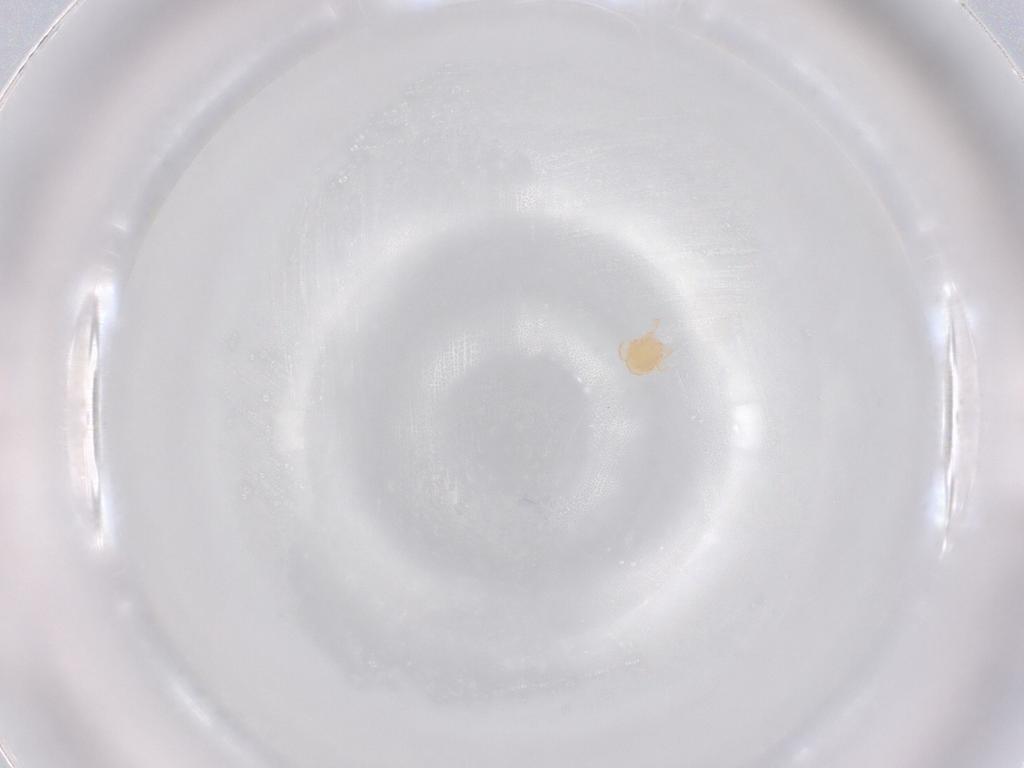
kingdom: Animalia
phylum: Arthropoda
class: Arachnida
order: Trombidiformes
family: Sperchontidae
